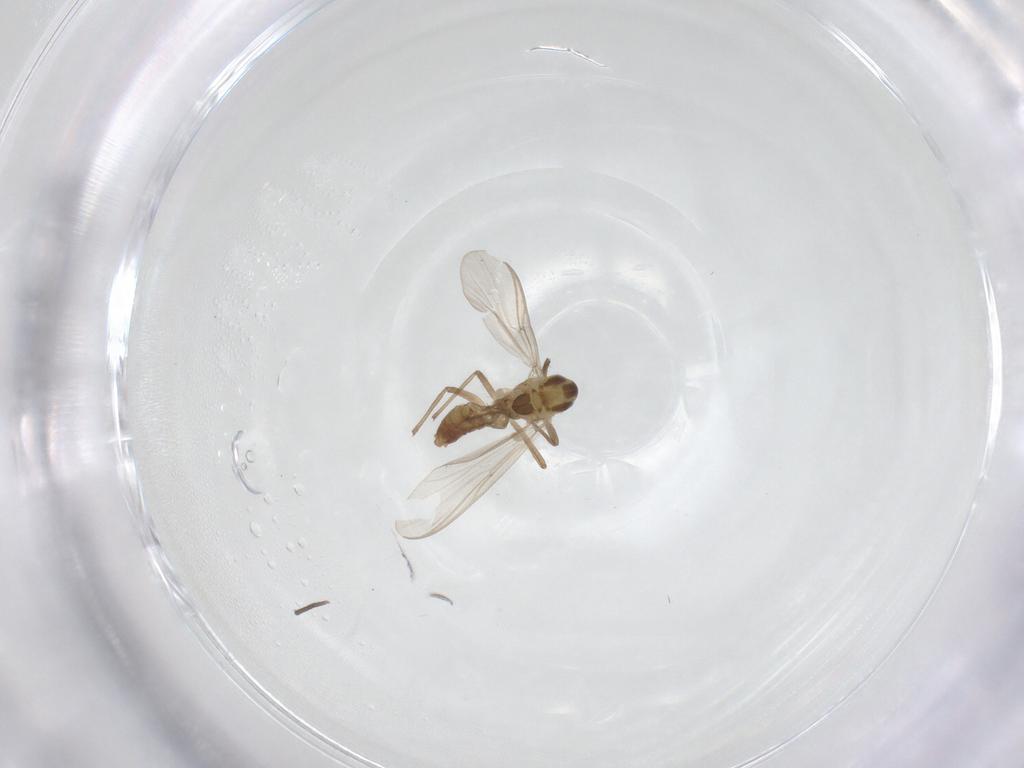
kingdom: Animalia
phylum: Arthropoda
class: Insecta
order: Diptera
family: Chironomidae
